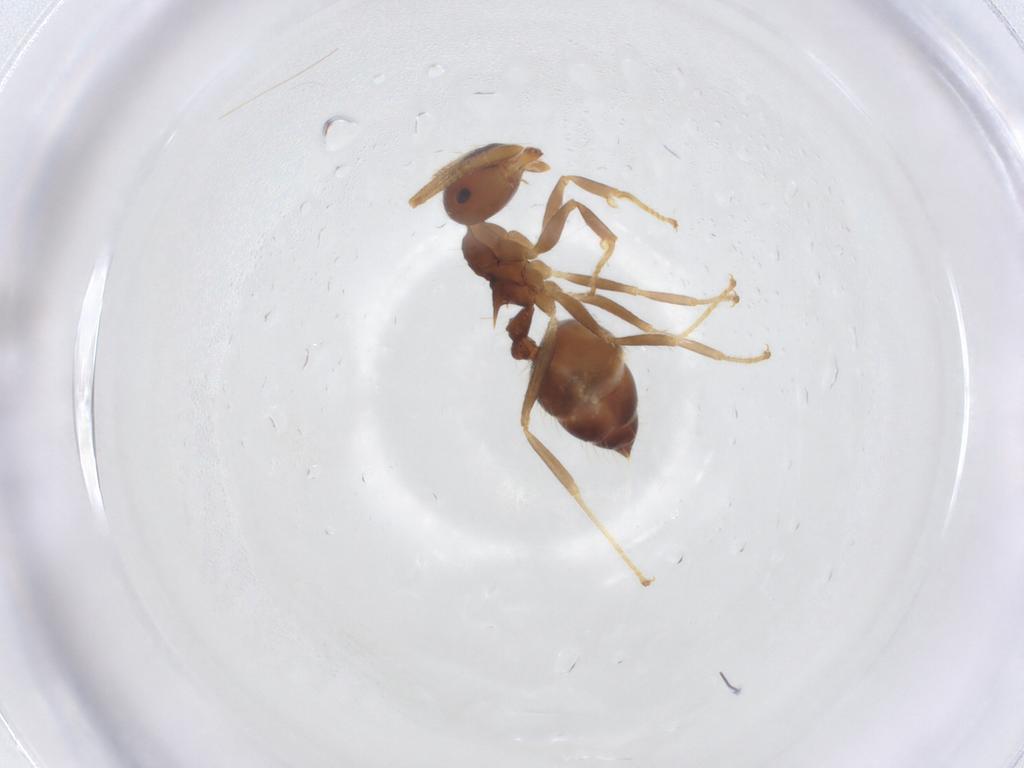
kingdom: Animalia
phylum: Arthropoda
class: Insecta
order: Hymenoptera
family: Formicidae
